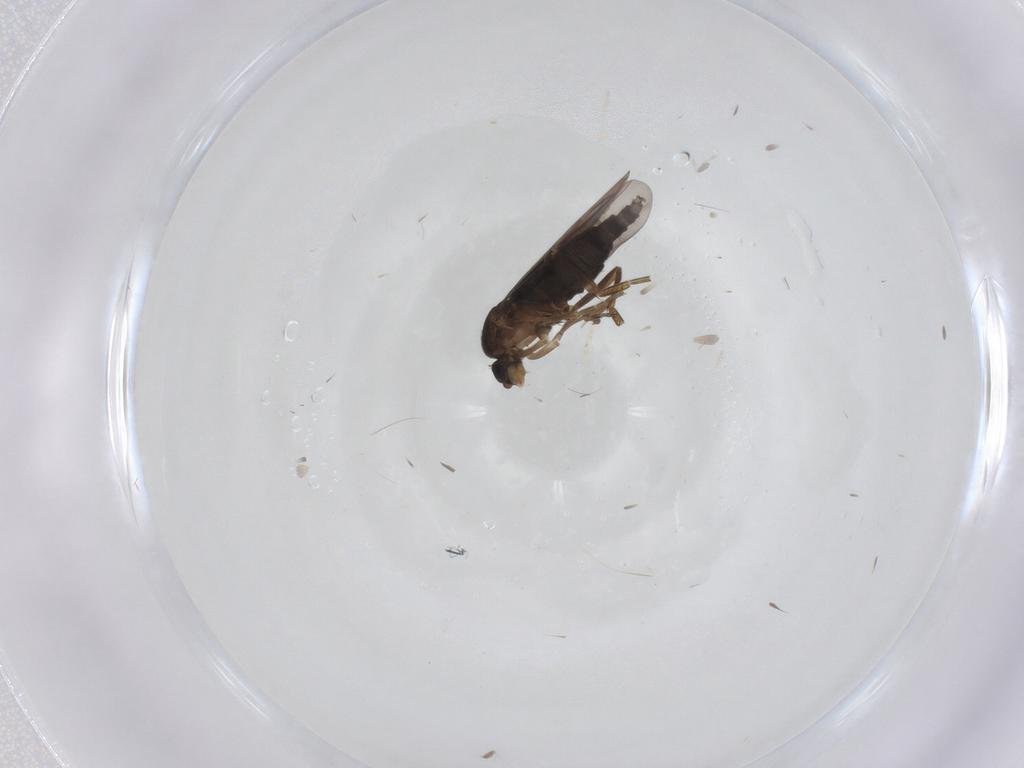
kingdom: Animalia
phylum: Arthropoda
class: Insecta
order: Diptera
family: Phoridae
